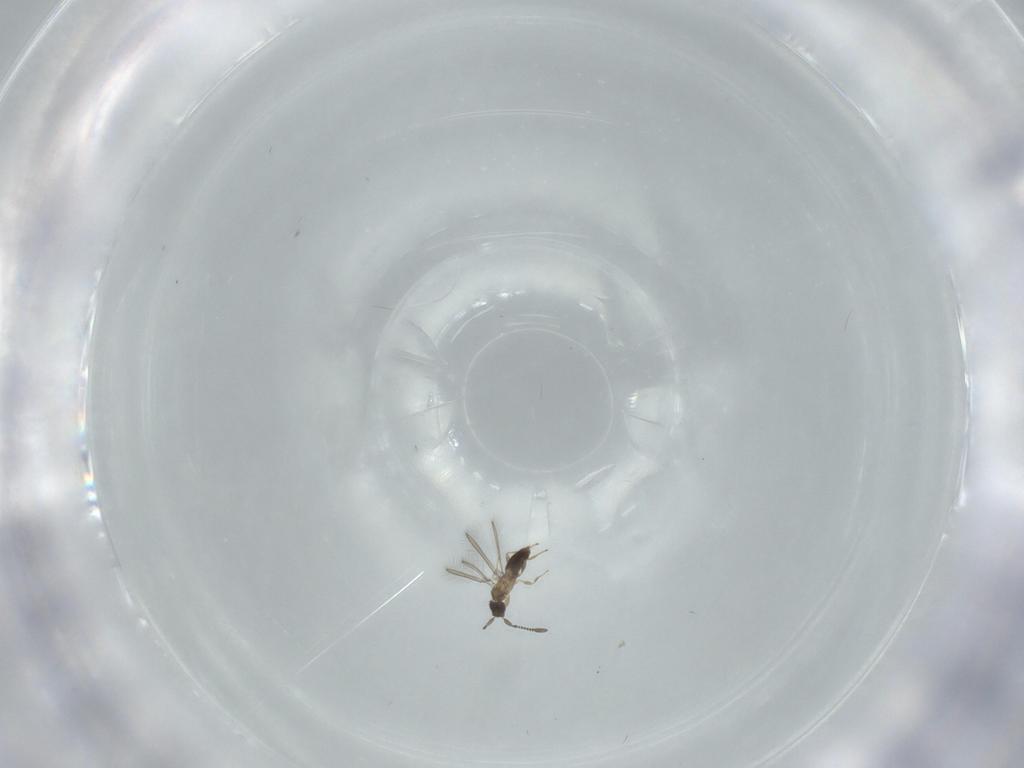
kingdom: Animalia
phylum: Arthropoda
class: Insecta
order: Hymenoptera
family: Mymaridae
